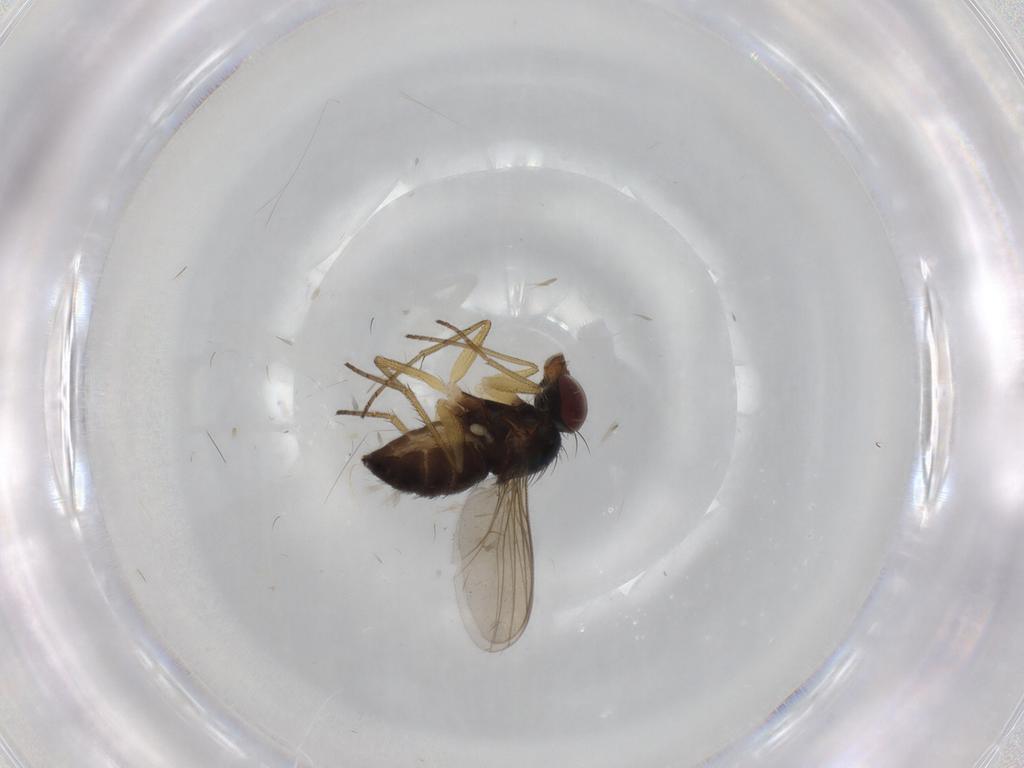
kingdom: Animalia
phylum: Arthropoda
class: Insecta
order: Diptera
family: Dolichopodidae
